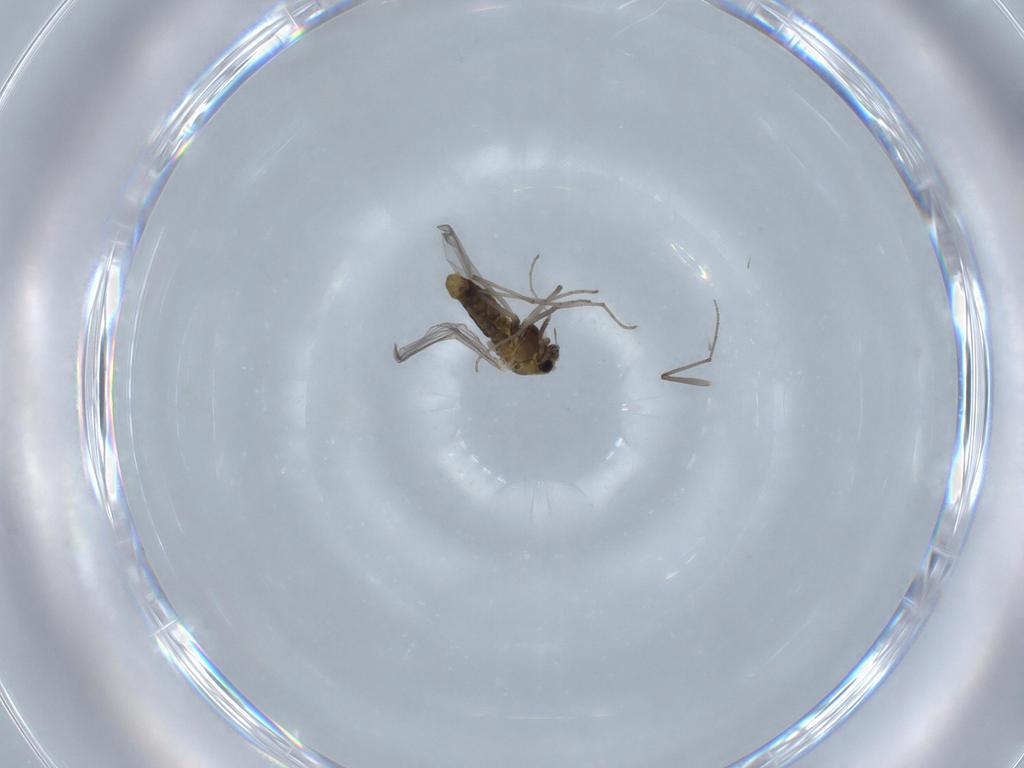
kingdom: Animalia
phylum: Arthropoda
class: Insecta
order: Diptera
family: Chironomidae
